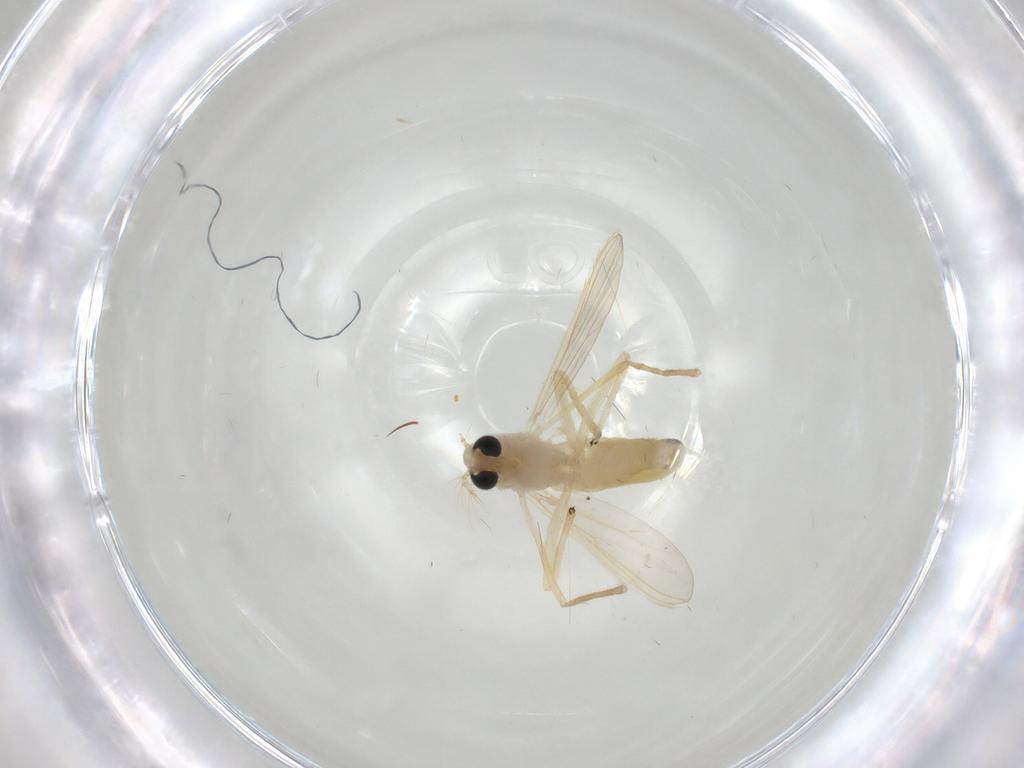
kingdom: Animalia
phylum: Arthropoda
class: Insecta
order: Diptera
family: Chironomidae
